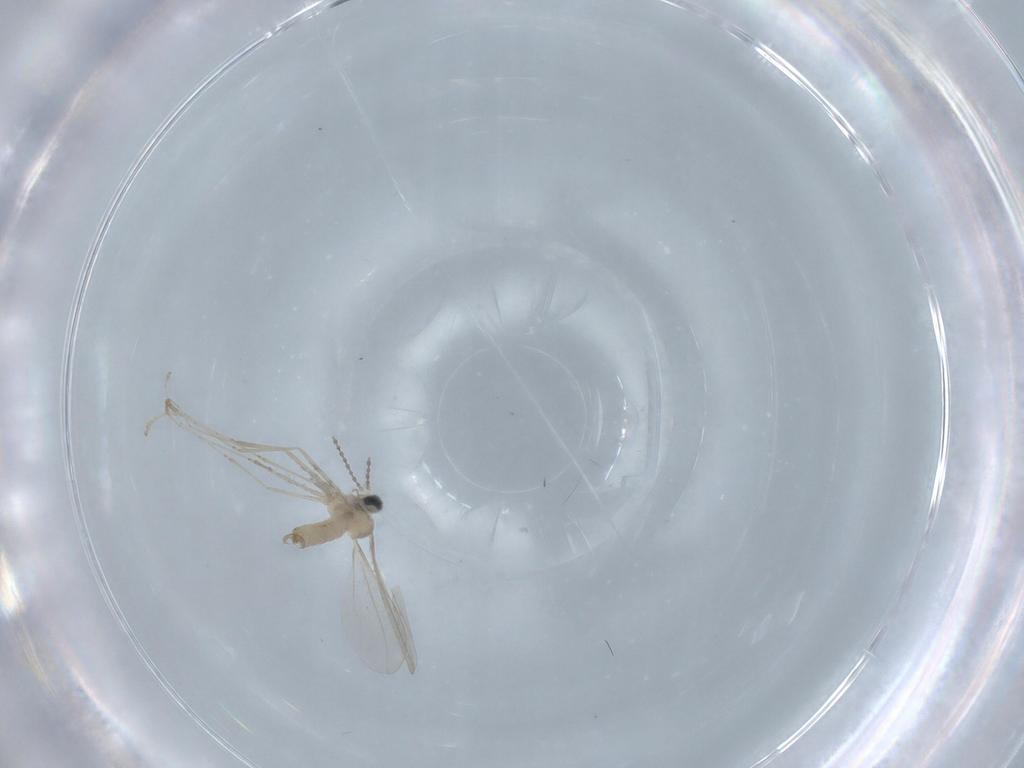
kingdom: Animalia
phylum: Arthropoda
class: Insecta
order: Diptera
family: Cecidomyiidae
